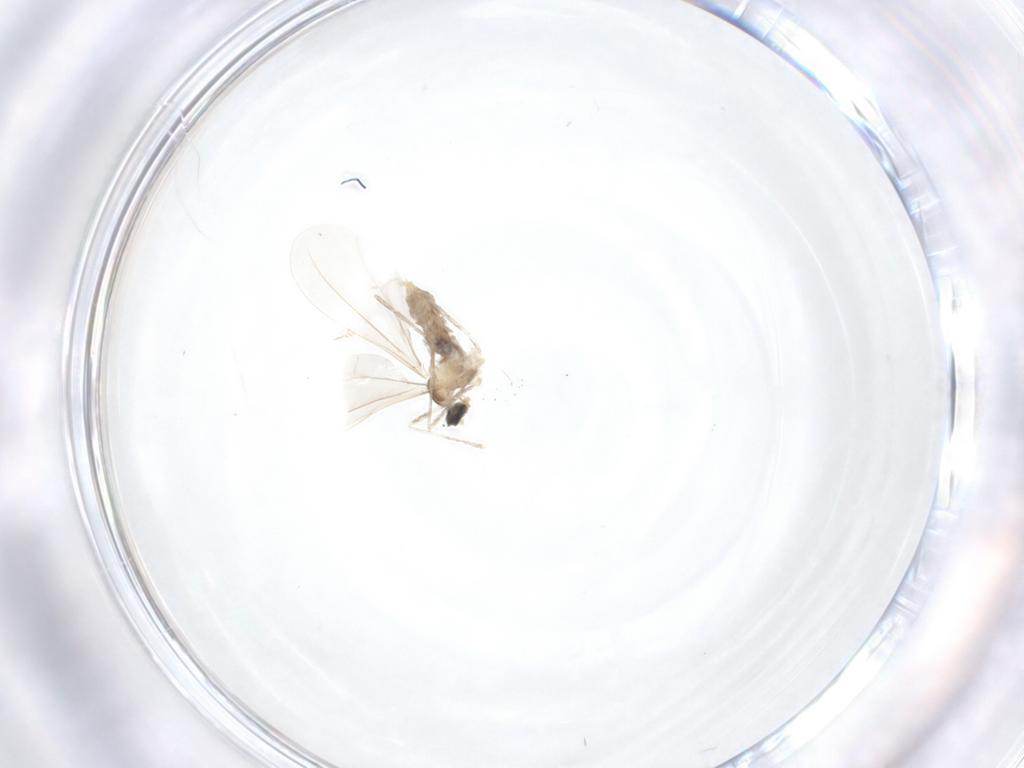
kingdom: Animalia
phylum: Arthropoda
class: Insecta
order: Diptera
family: Cecidomyiidae
